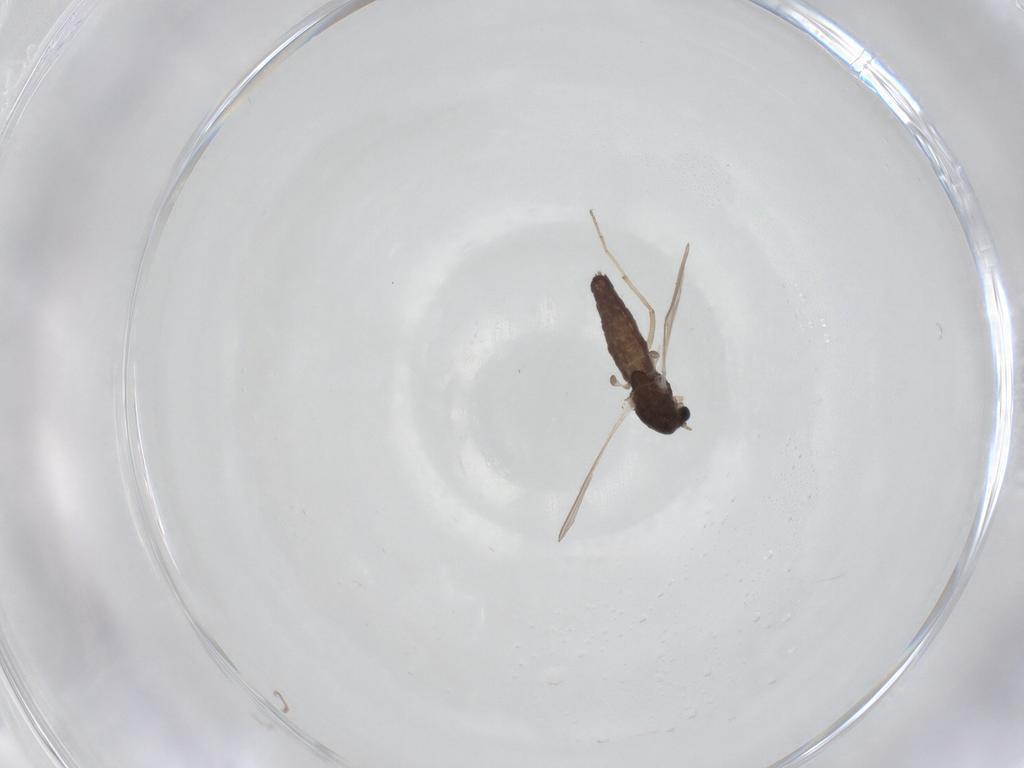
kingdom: Animalia
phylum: Arthropoda
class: Insecta
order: Diptera
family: Chironomidae
